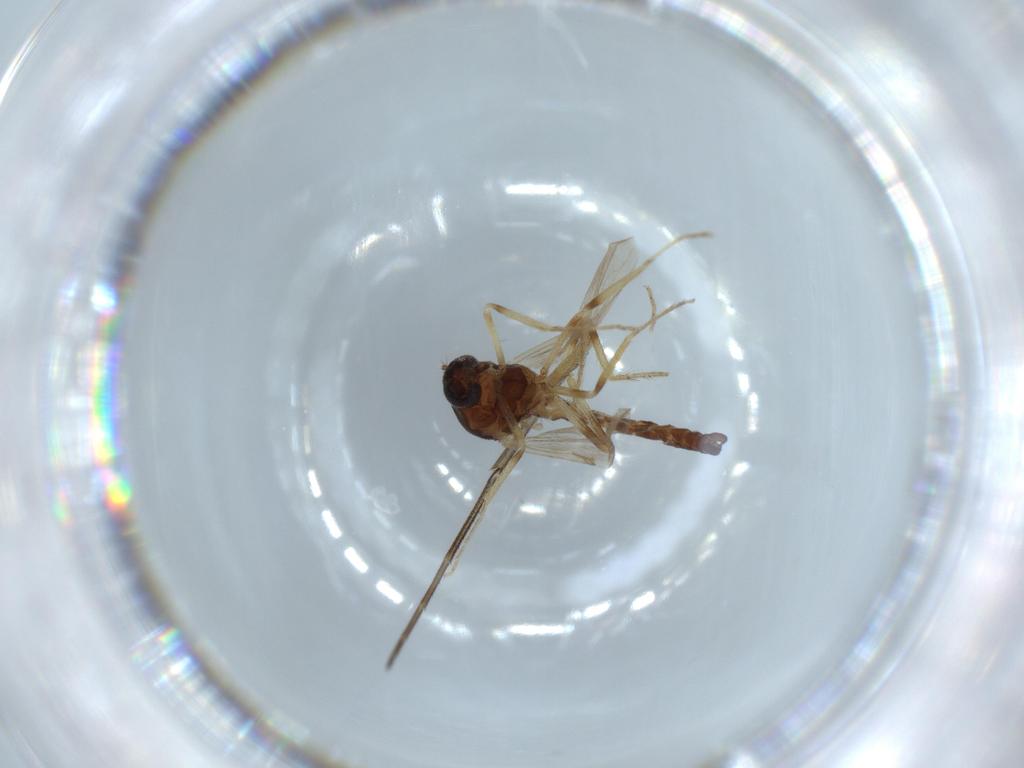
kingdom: Animalia
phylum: Arthropoda
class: Insecta
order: Diptera
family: Ceratopogonidae
